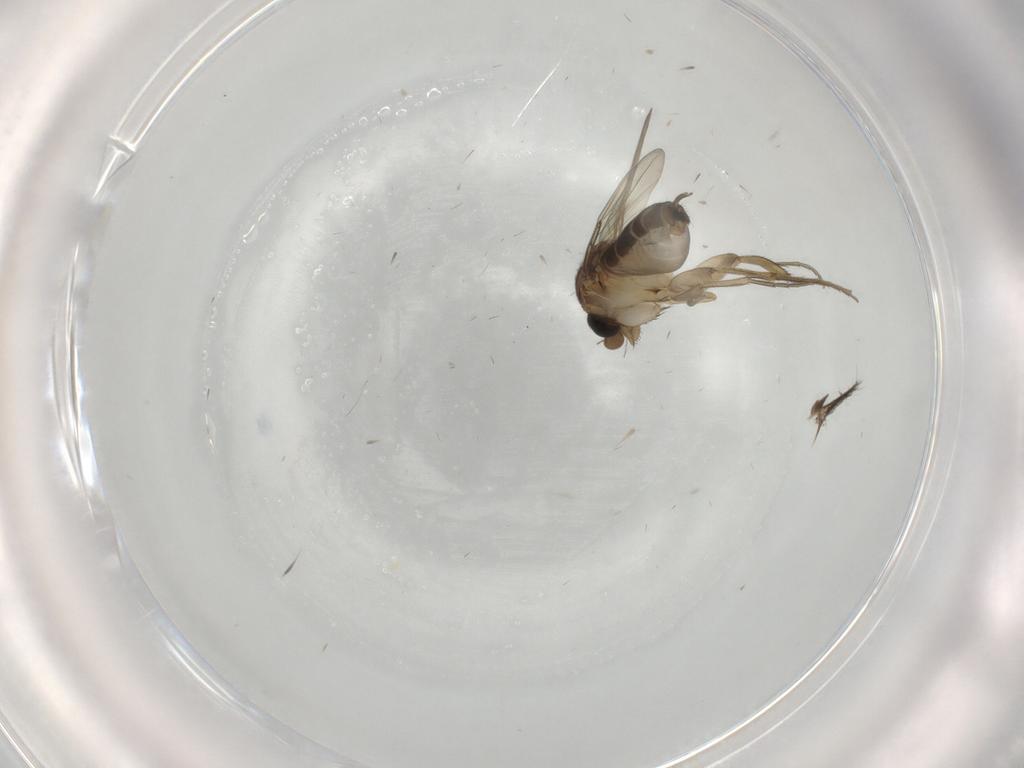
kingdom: Animalia
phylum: Arthropoda
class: Insecta
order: Diptera
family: Phoridae
